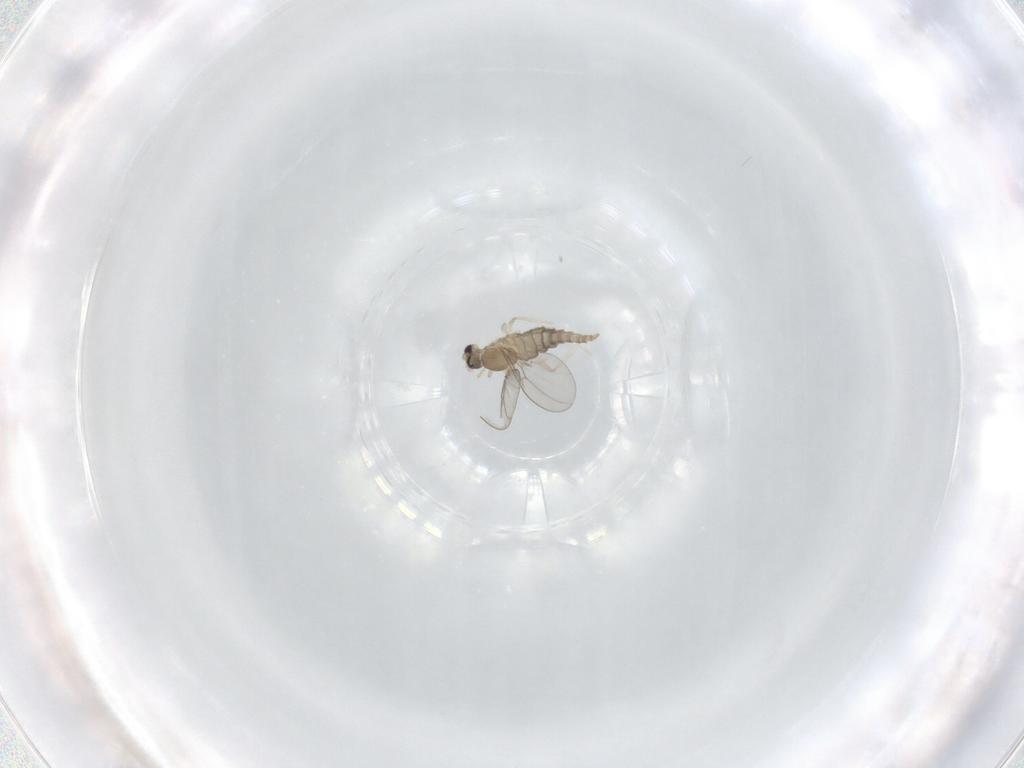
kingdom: Animalia
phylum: Arthropoda
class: Insecta
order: Diptera
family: Cecidomyiidae
